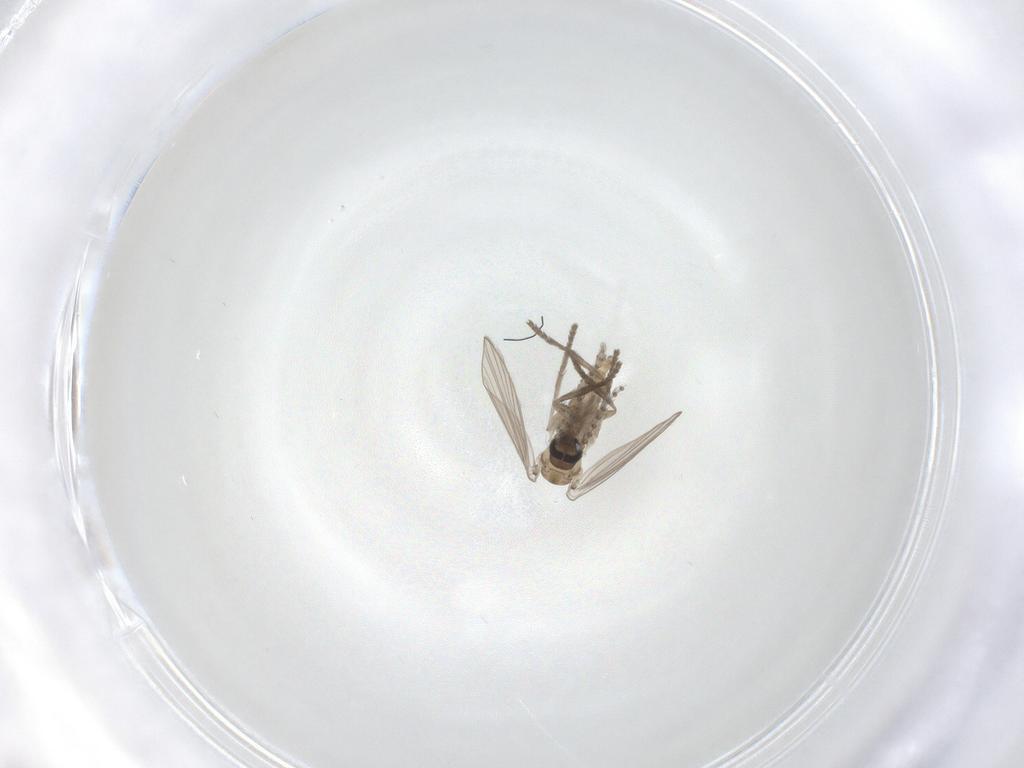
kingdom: Animalia
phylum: Arthropoda
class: Insecta
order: Diptera
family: Psychodidae
